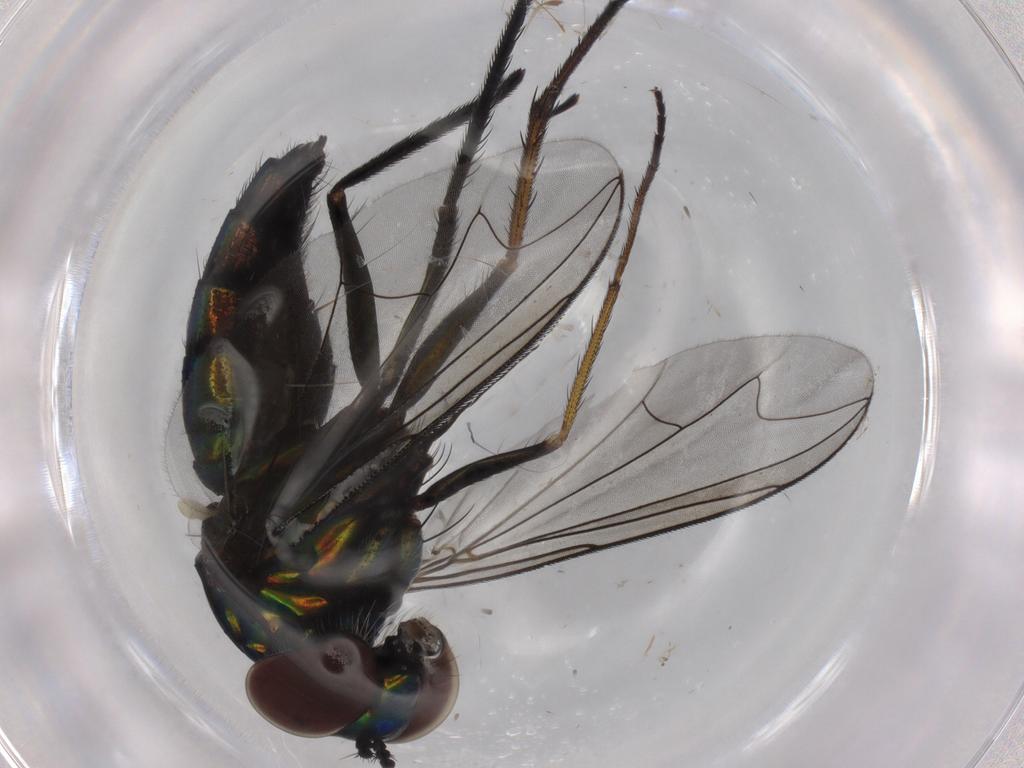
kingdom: Animalia
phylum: Arthropoda
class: Insecta
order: Diptera
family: Dolichopodidae
